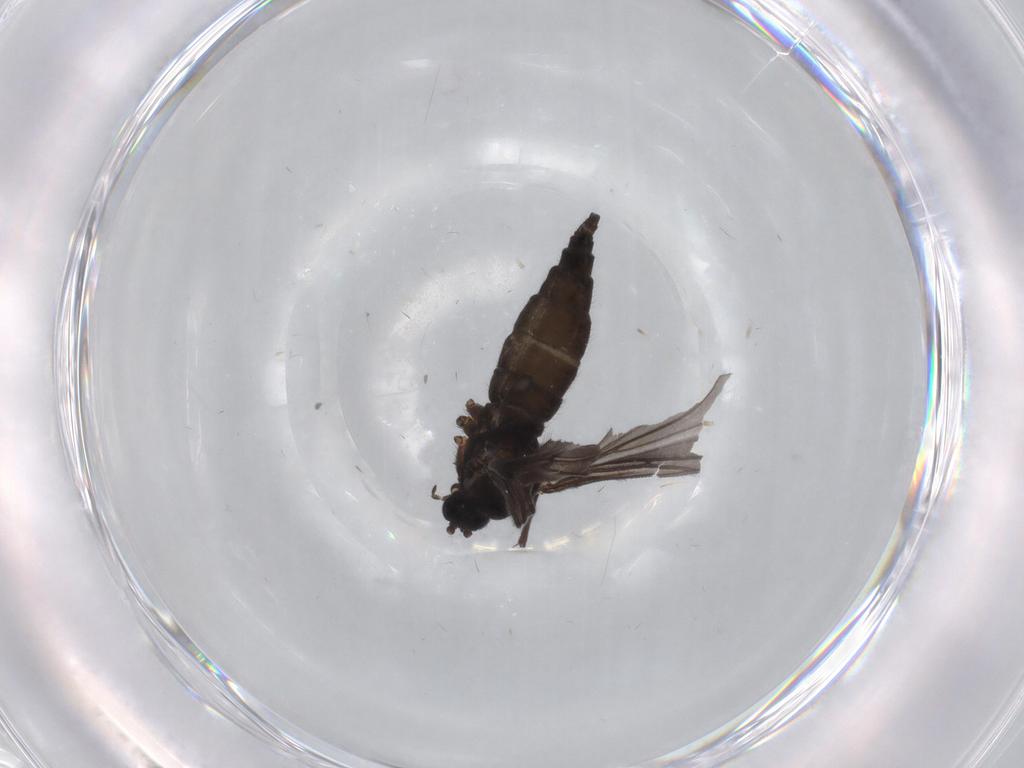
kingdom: Animalia
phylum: Arthropoda
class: Insecta
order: Diptera
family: Sciaridae
